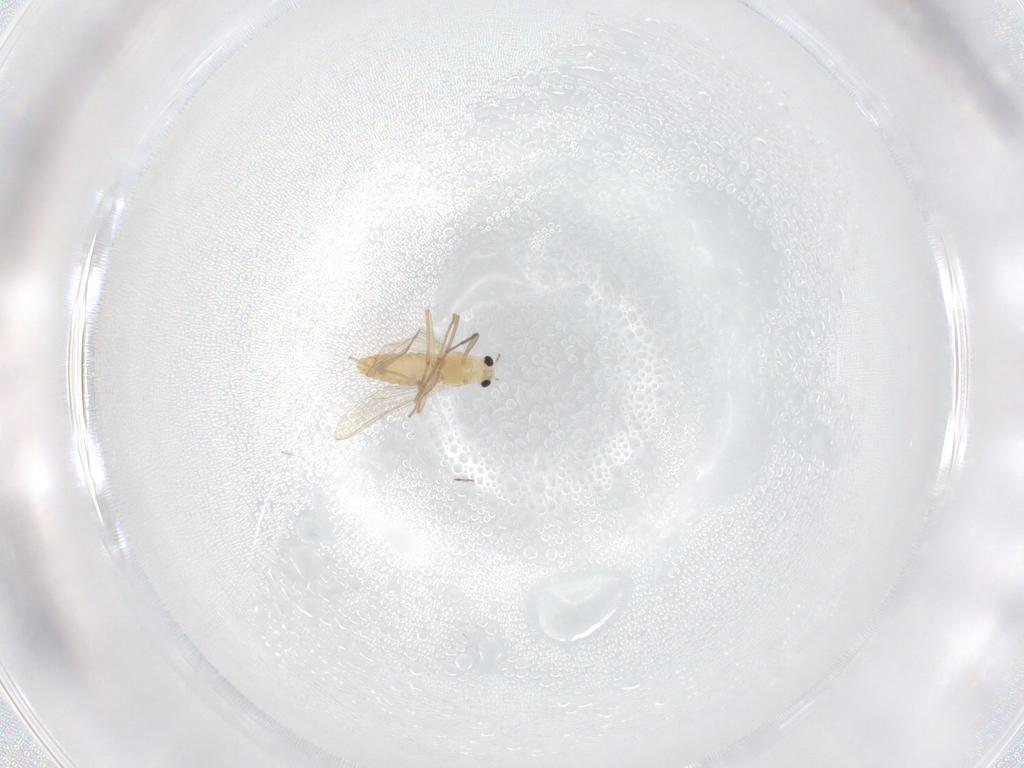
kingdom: Animalia
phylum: Arthropoda
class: Insecta
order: Diptera
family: Chironomidae
